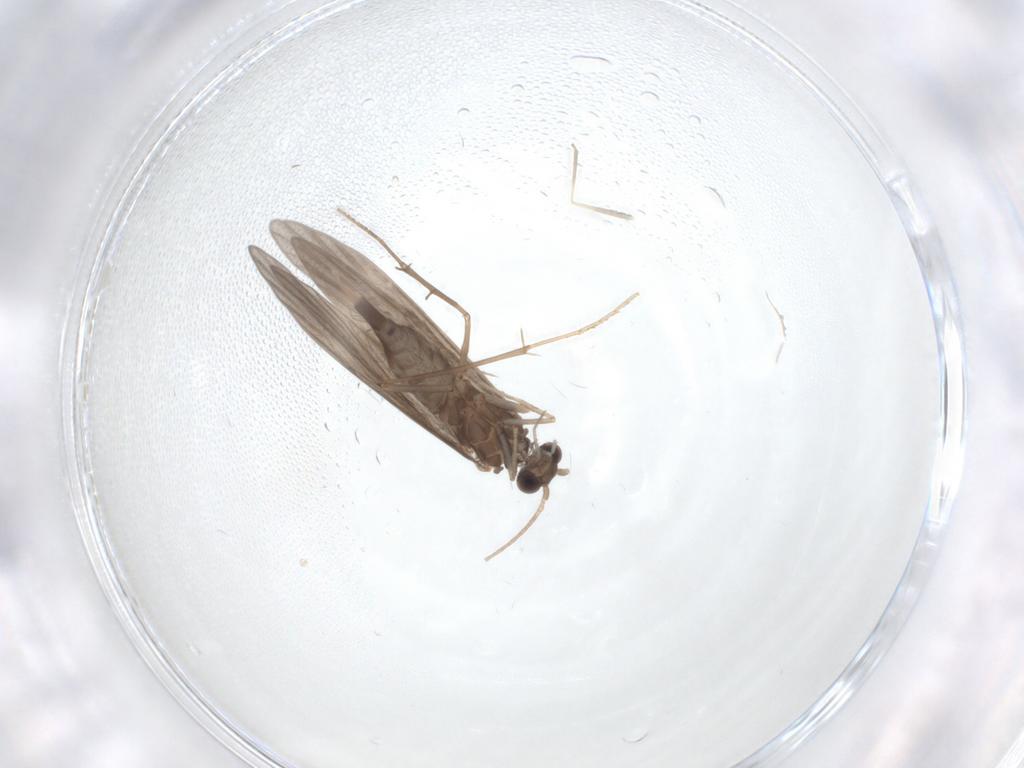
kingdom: Animalia
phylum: Arthropoda
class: Insecta
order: Trichoptera
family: Xiphocentronidae
